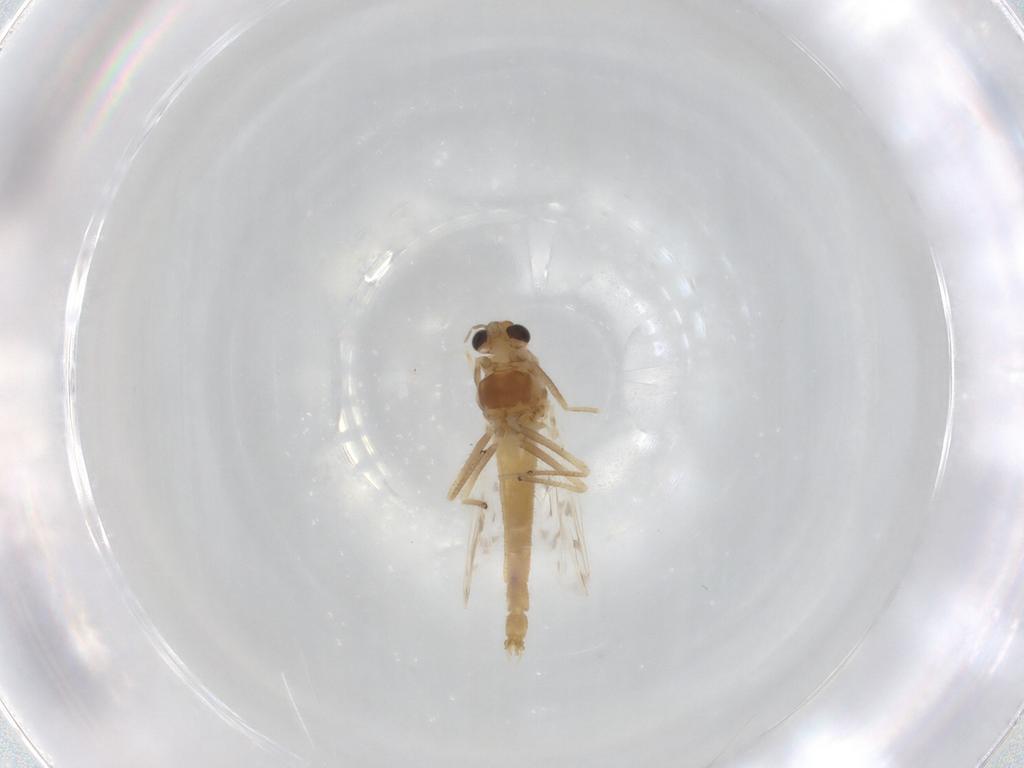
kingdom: Animalia
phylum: Arthropoda
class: Insecta
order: Diptera
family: Chironomidae
